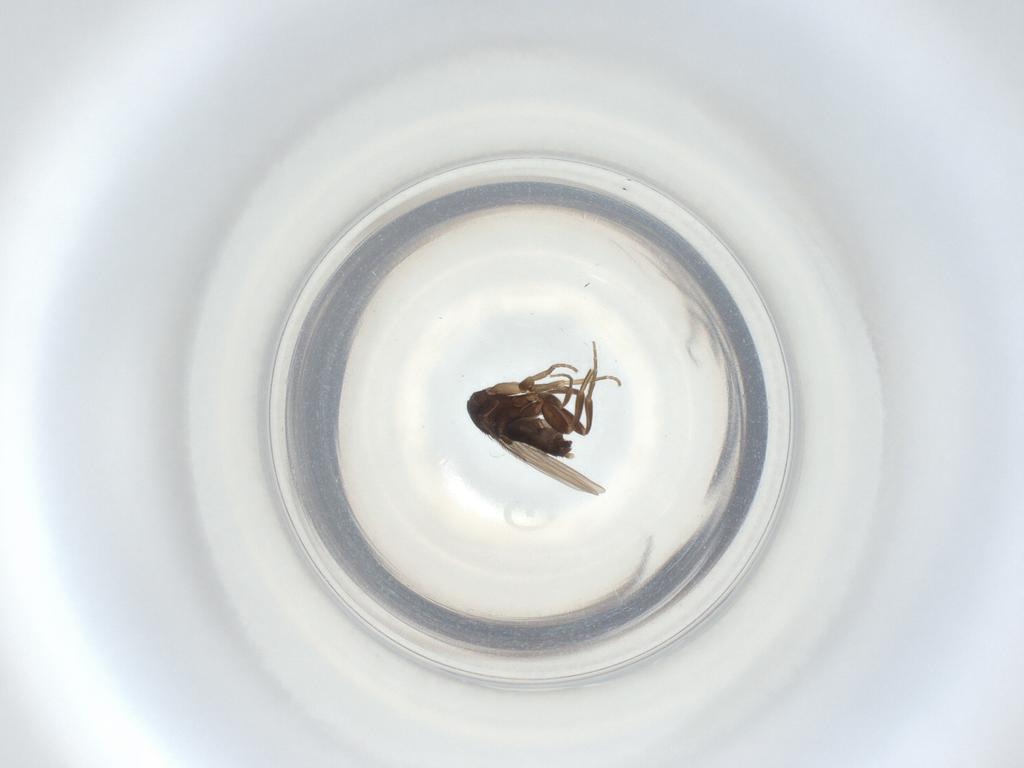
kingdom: Animalia
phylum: Arthropoda
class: Insecta
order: Diptera
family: Phoridae
